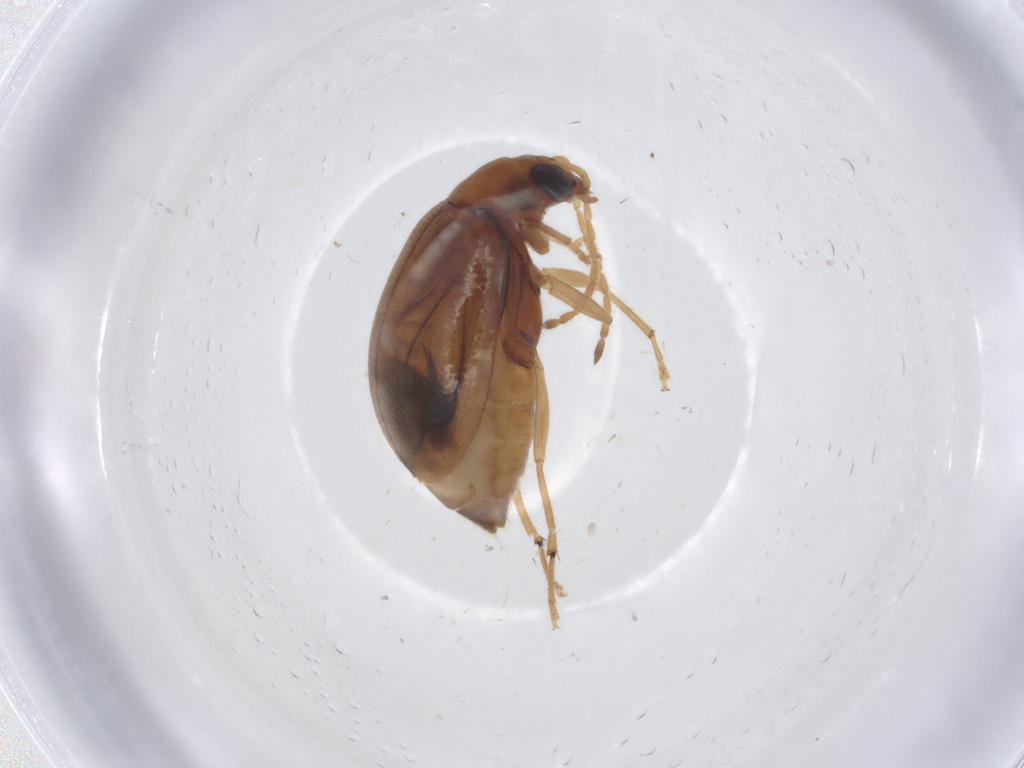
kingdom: Animalia
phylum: Arthropoda
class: Insecta
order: Coleoptera
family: Chrysomelidae
